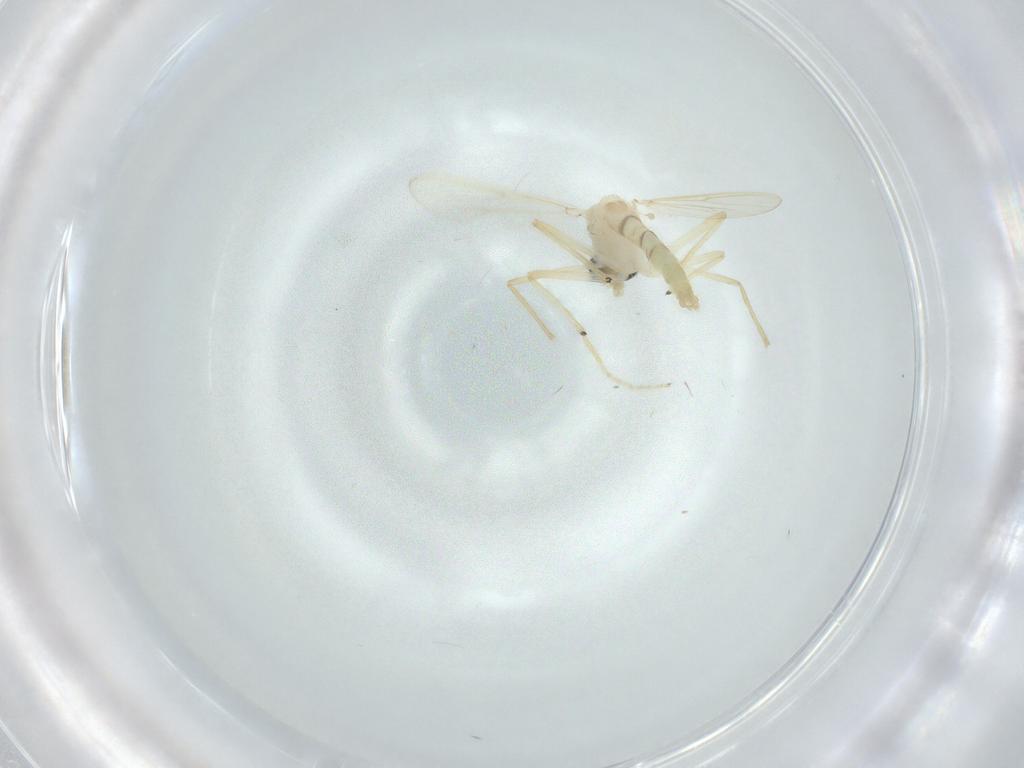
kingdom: Animalia
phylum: Arthropoda
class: Insecta
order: Diptera
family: Chironomidae
